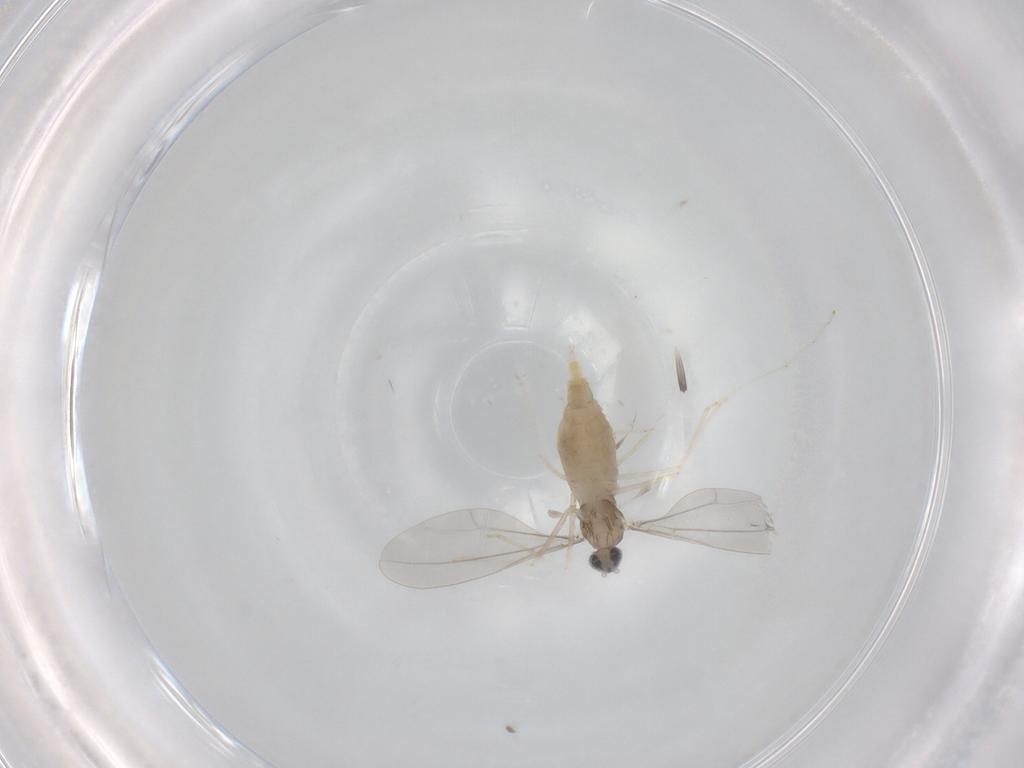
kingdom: Animalia
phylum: Arthropoda
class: Insecta
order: Diptera
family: Cecidomyiidae
